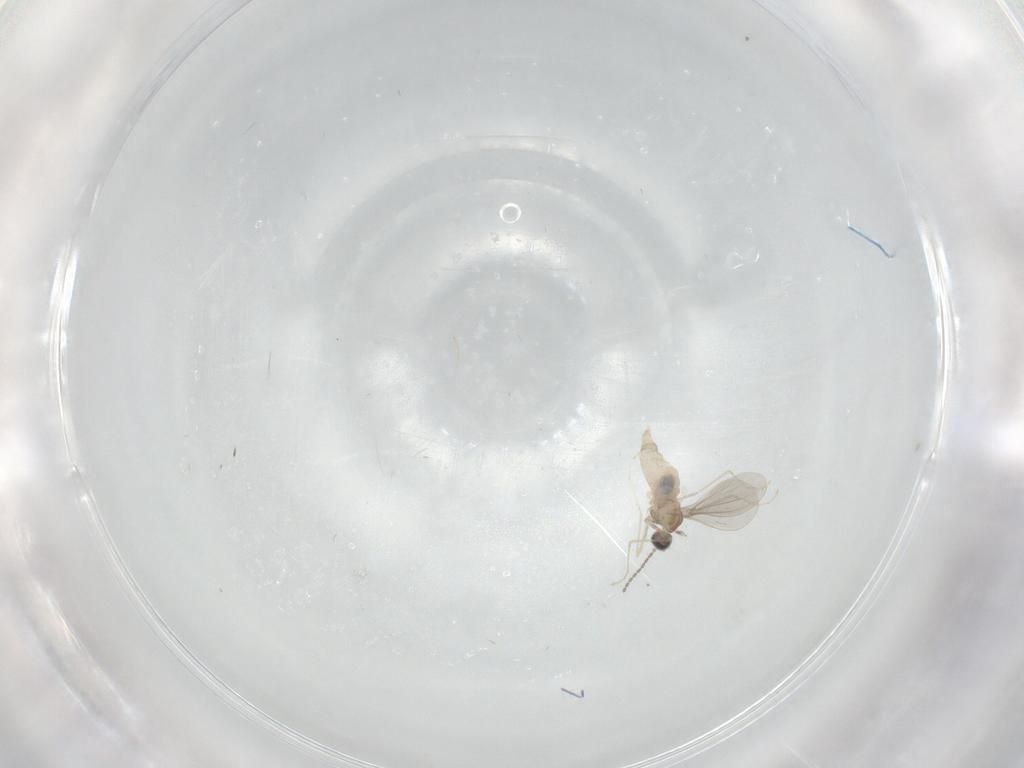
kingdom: Animalia
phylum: Arthropoda
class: Insecta
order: Diptera
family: Cecidomyiidae
